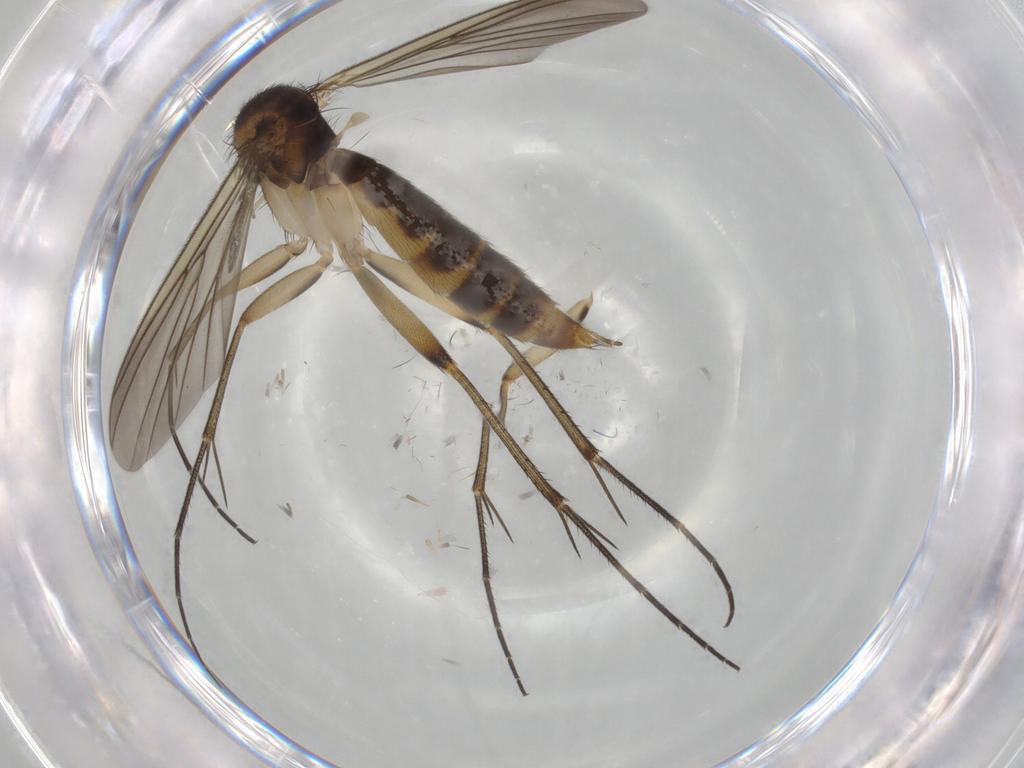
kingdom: Animalia
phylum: Arthropoda
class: Insecta
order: Diptera
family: Mycetophilidae
